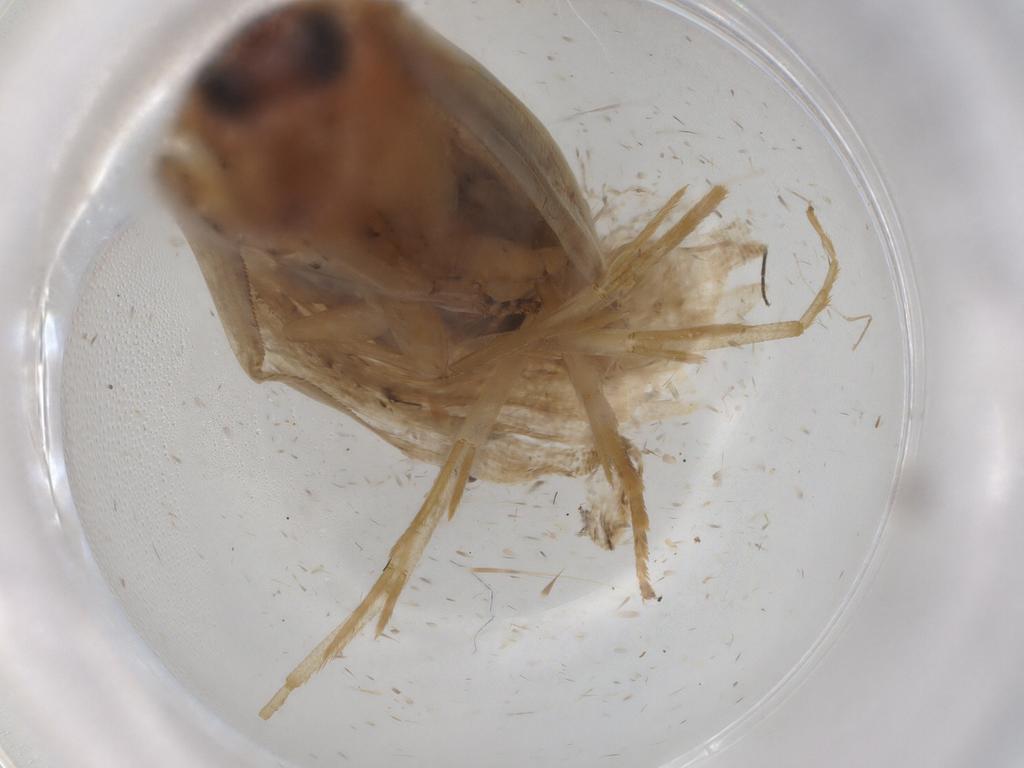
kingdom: Animalia
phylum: Arthropoda
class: Insecta
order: Lepidoptera
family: Tortricidae
